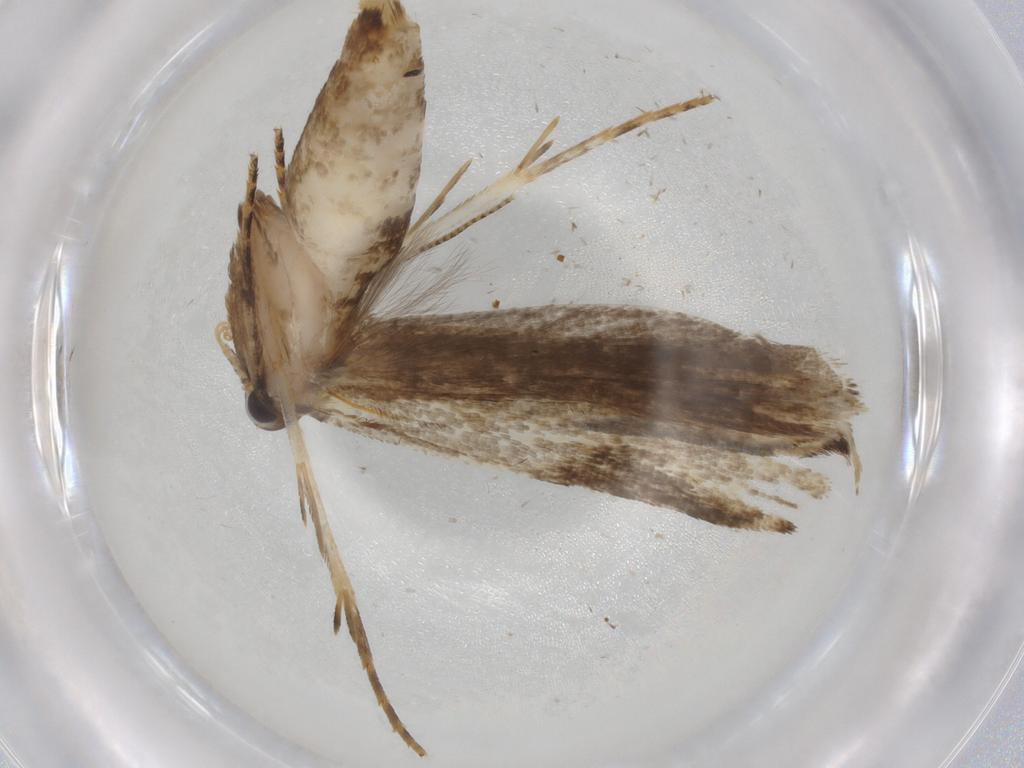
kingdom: Animalia
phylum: Arthropoda
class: Insecta
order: Lepidoptera
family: Gelechiidae
